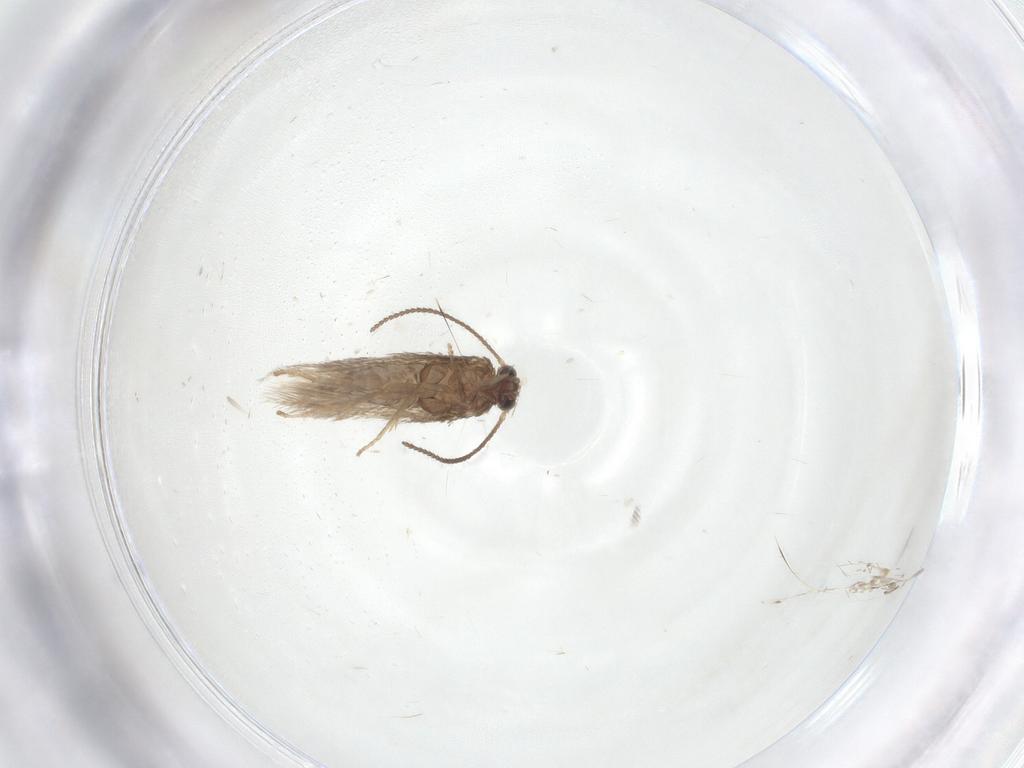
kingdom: Animalia
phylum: Arthropoda
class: Insecta
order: Lepidoptera
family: Nepticulidae
